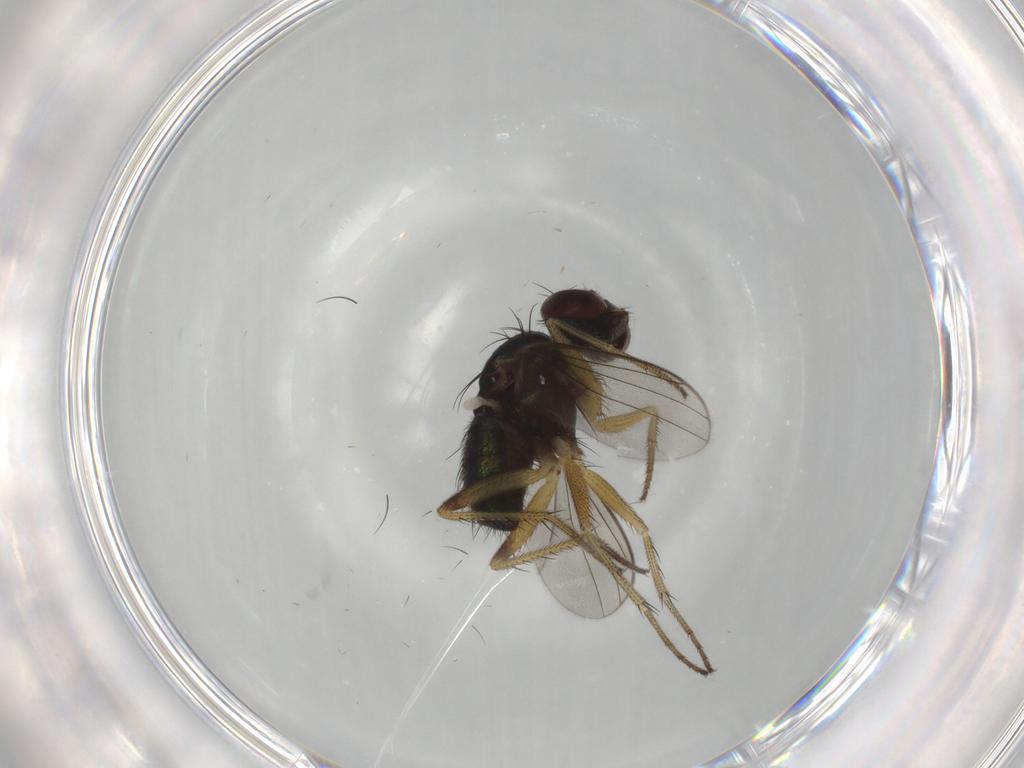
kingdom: Animalia
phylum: Arthropoda
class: Insecta
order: Diptera
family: Dolichopodidae
